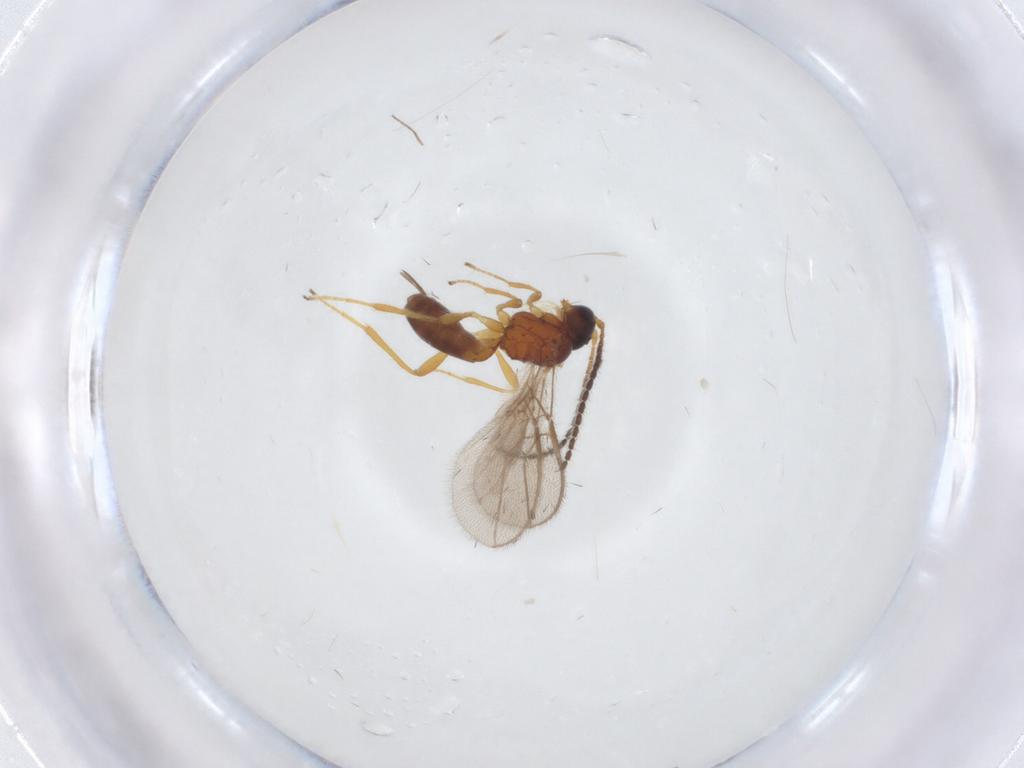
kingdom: Animalia
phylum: Arthropoda
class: Insecta
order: Hymenoptera
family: Braconidae
